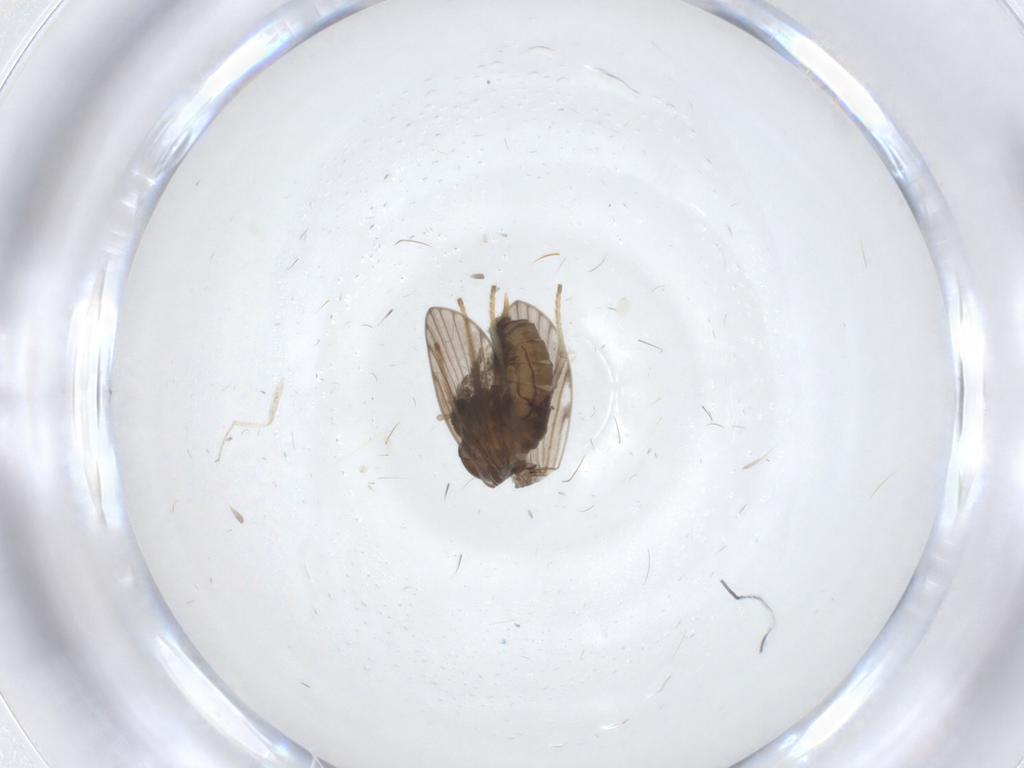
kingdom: Animalia
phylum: Arthropoda
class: Insecta
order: Diptera
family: Psychodidae
